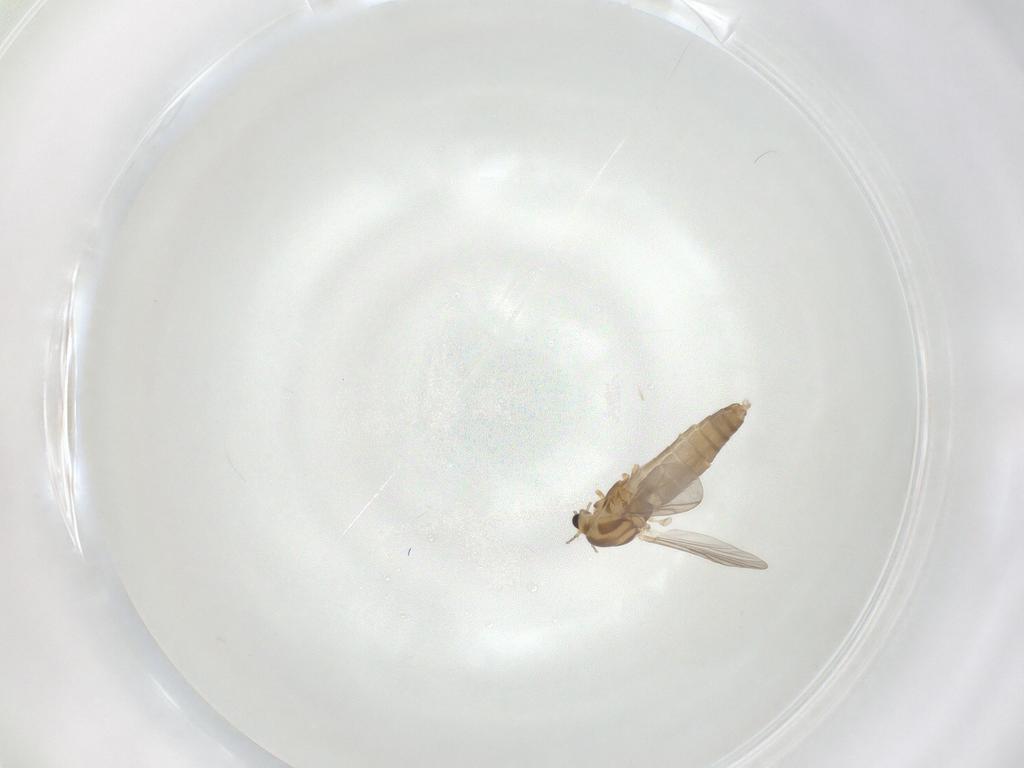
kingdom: Animalia
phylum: Arthropoda
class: Insecta
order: Diptera
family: Chironomidae
